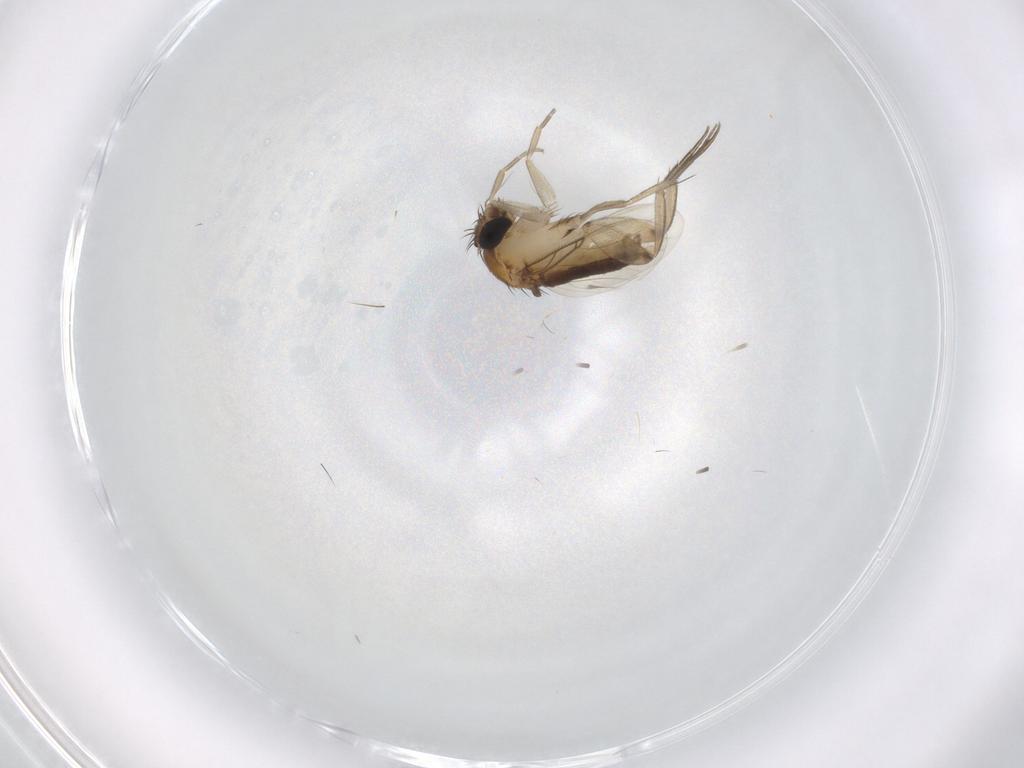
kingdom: Animalia
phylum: Arthropoda
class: Insecta
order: Diptera
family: Phoridae
